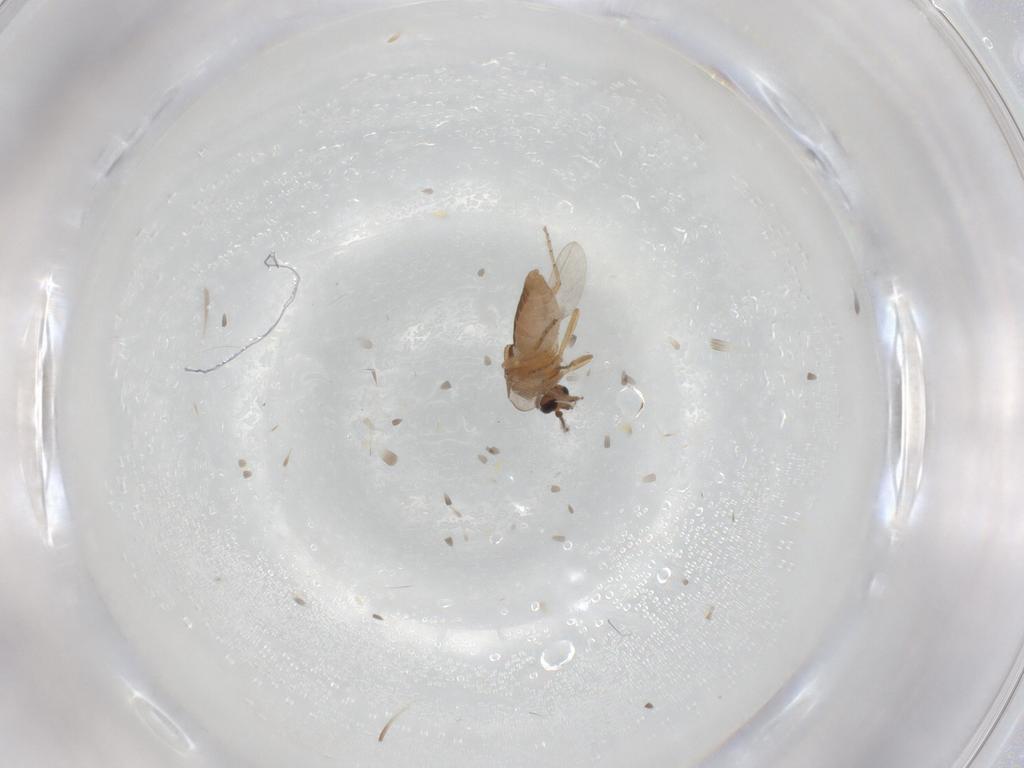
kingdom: Animalia
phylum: Arthropoda
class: Insecta
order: Diptera
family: Ceratopogonidae
